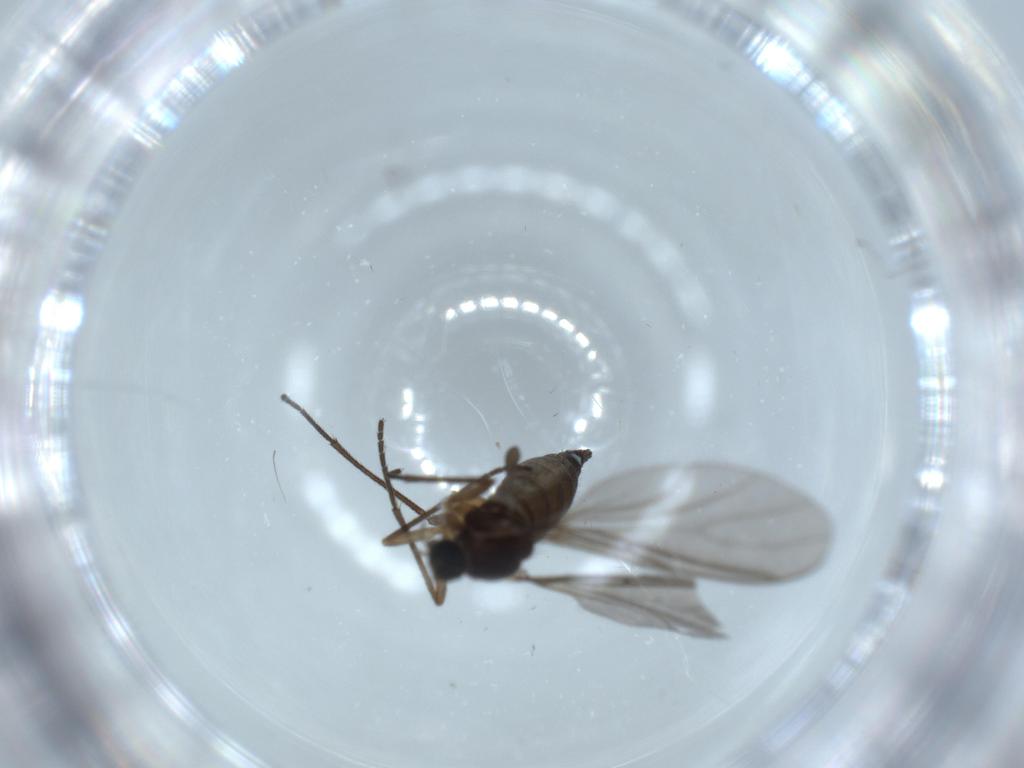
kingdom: Animalia
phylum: Arthropoda
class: Insecta
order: Diptera
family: Sciaridae
